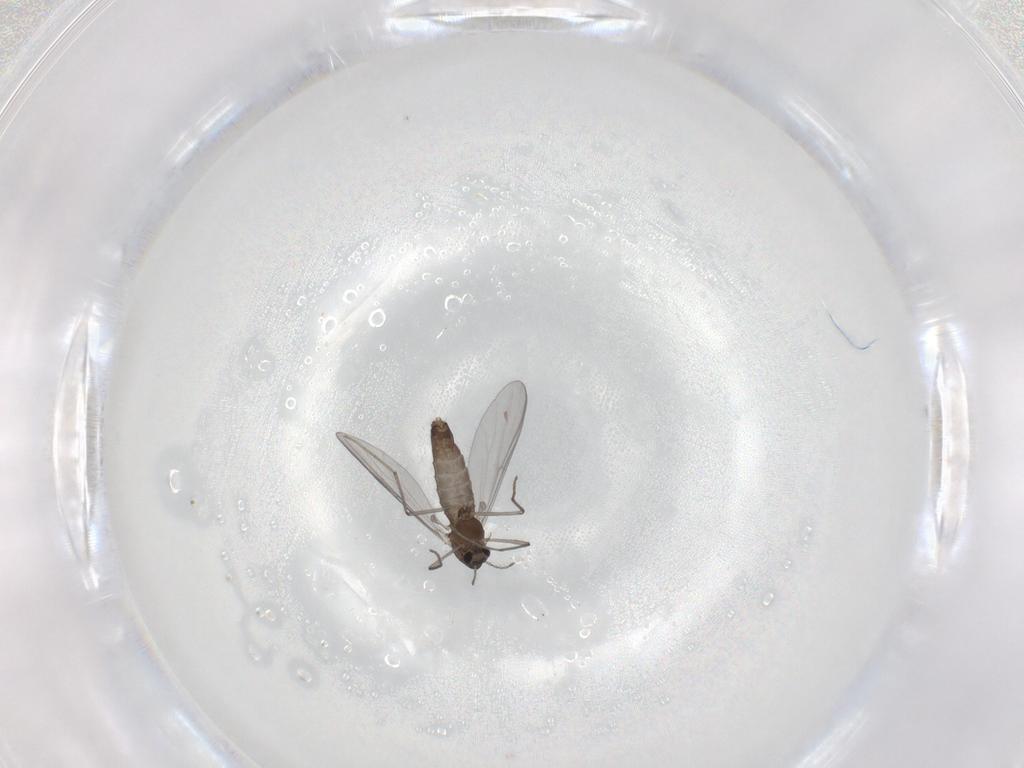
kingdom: Animalia
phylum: Arthropoda
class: Insecta
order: Diptera
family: Chironomidae
